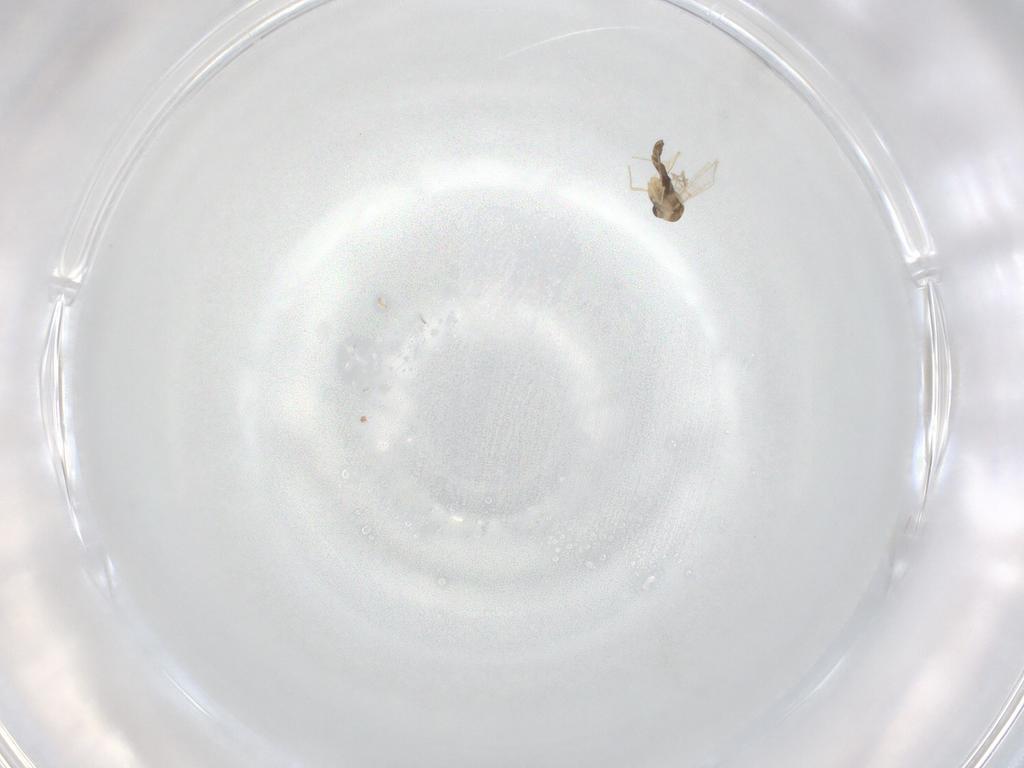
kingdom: Animalia
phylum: Arthropoda
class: Insecta
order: Diptera
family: Chironomidae
